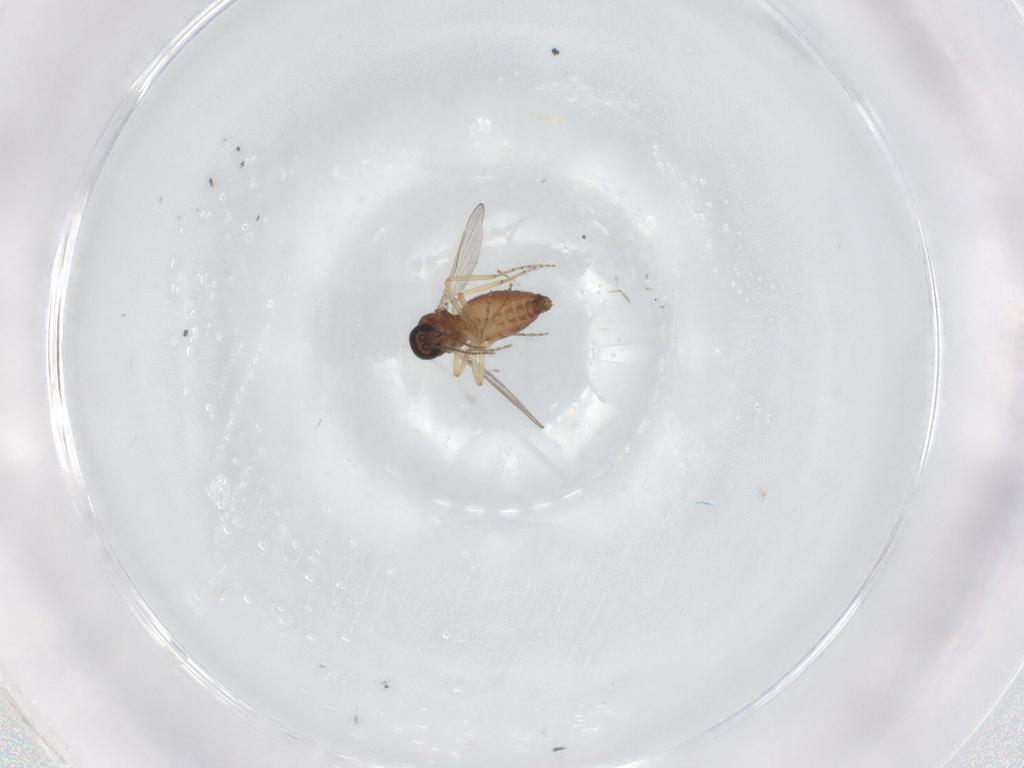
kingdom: Animalia
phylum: Arthropoda
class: Insecta
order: Diptera
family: Ceratopogonidae
